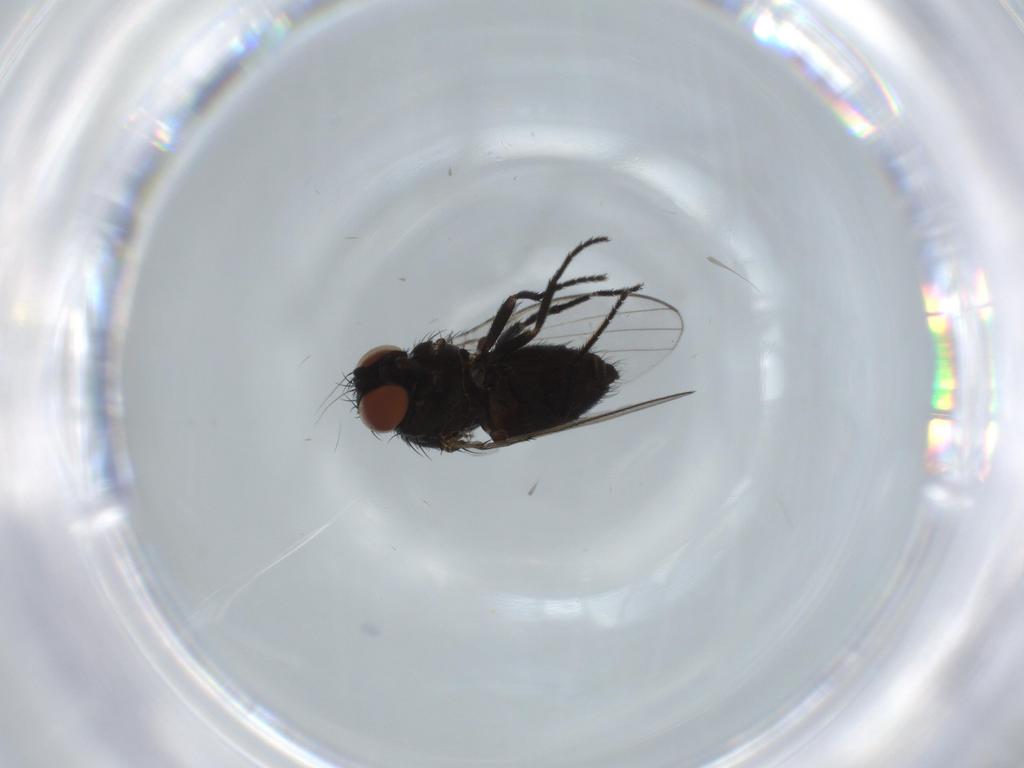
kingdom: Animalia
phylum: Arthropoda
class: Insecta
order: Diptera
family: Milichiidae
